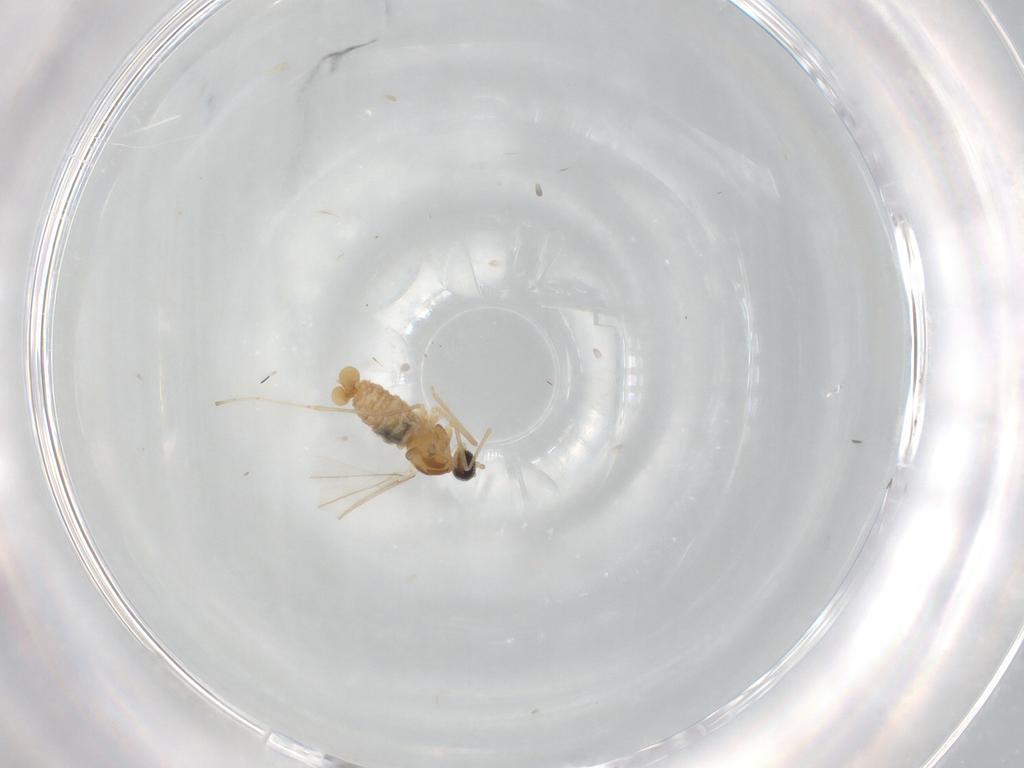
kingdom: Animalia
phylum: Arthropoda
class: Insecta
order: Diptera
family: Cecidomyiidae
